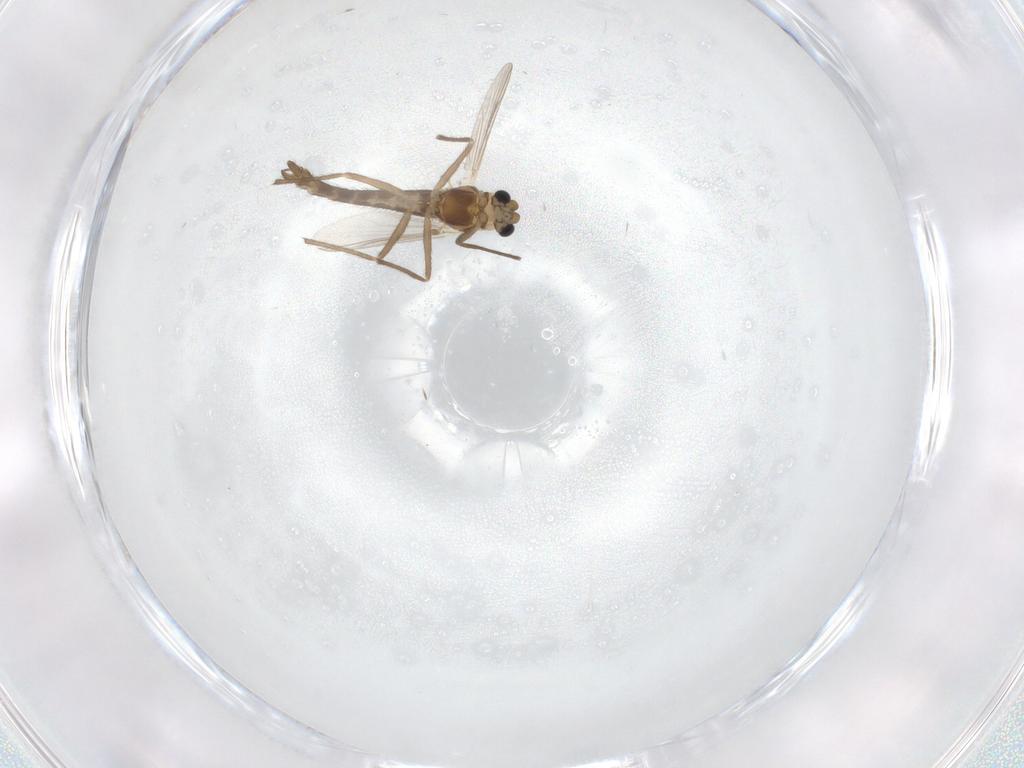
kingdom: Animalia
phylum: Arthropoda
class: Insecta
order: Diptera
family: Chironomidae
